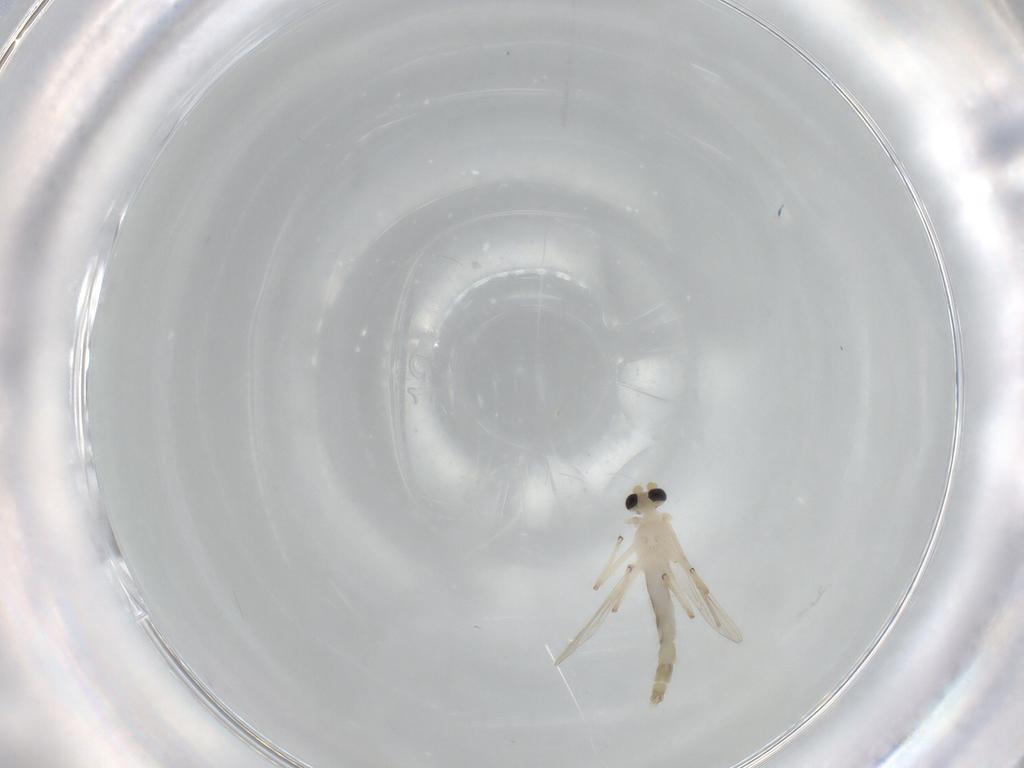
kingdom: Animalia
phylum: Arthropoda
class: Insecta
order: Diptera
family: Chironomidae
